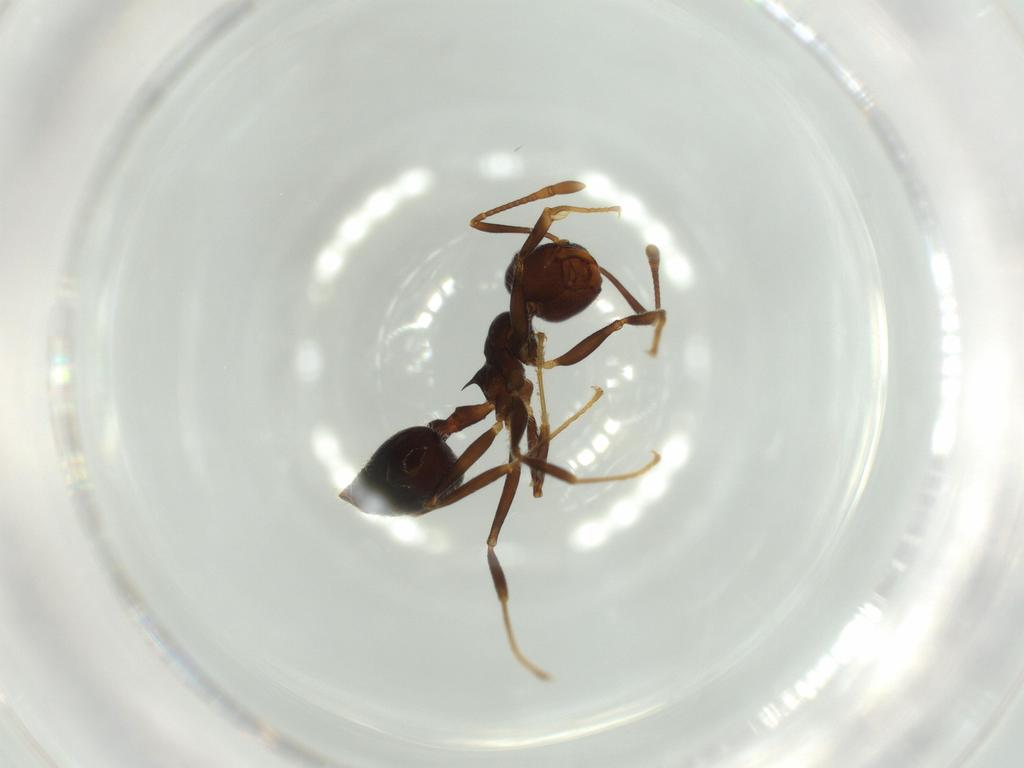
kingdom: Animalia
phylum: Arthropoda
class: Insecta
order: Hymenoptera
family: Formicidae
